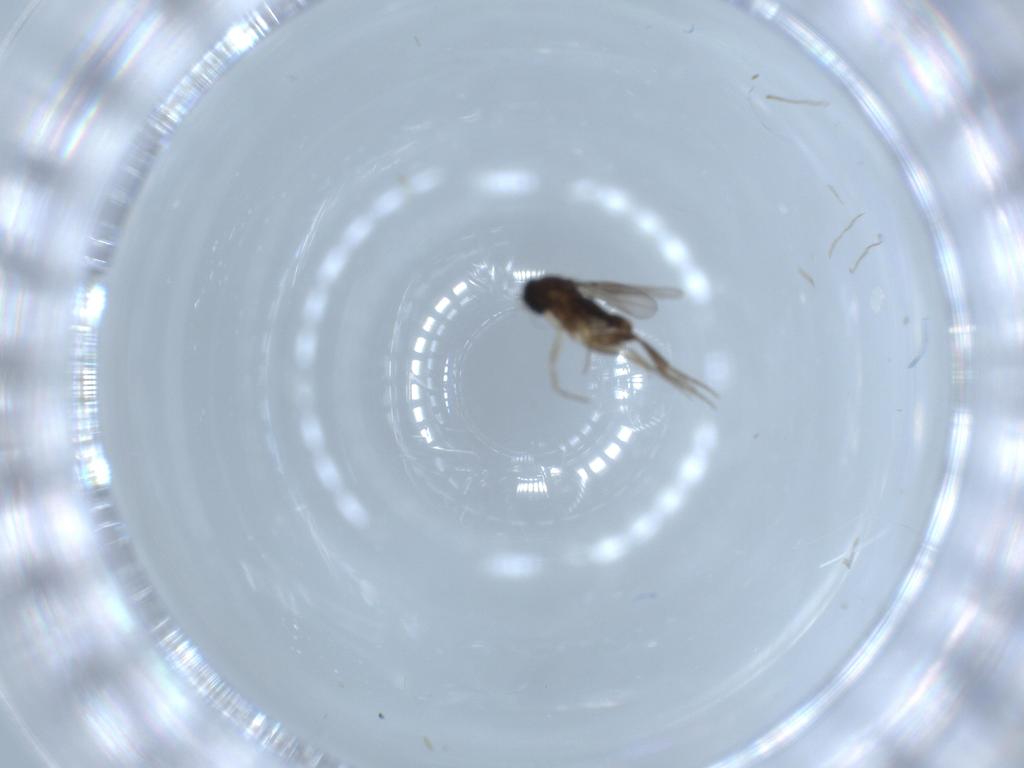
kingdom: Animalia
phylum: Arthropoda
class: Insecta
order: Diptera
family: Phoridae
